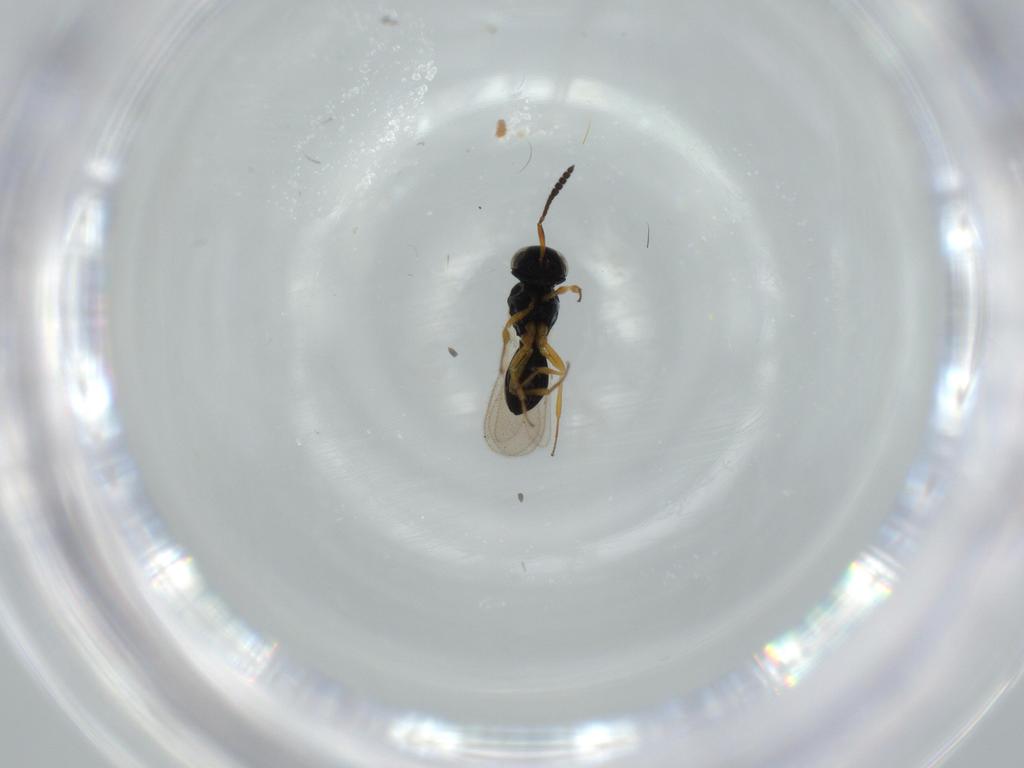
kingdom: Animalia
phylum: Arthropoda
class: Insecta
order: Hymenoptera
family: Scelionidae
